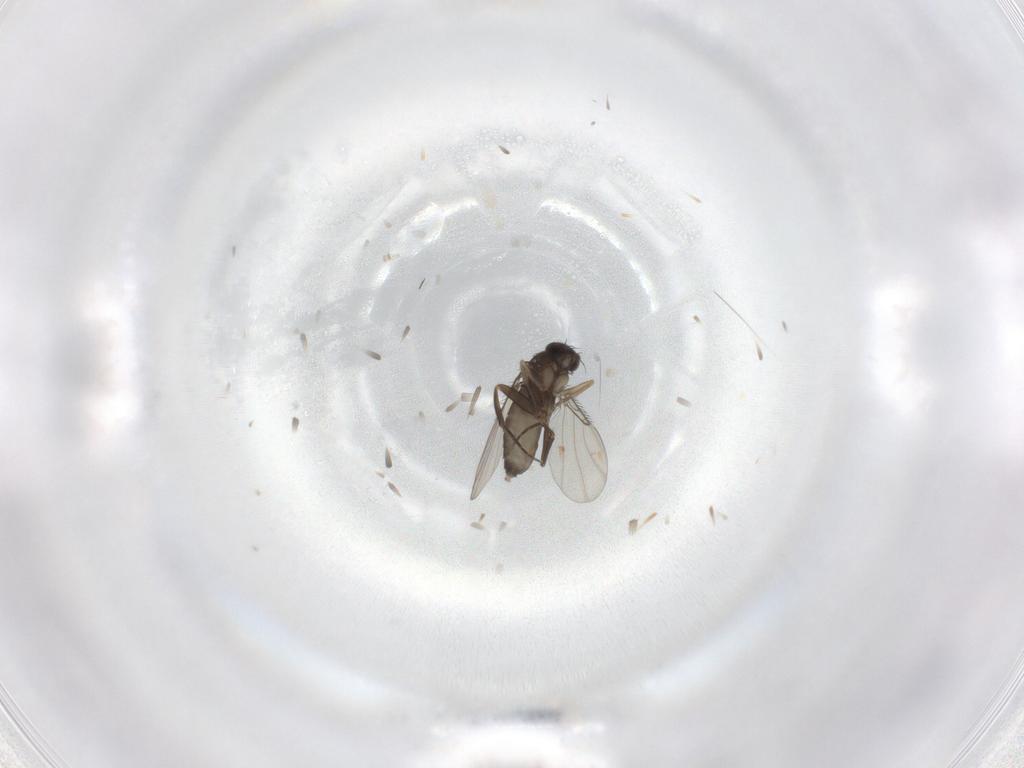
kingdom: Animalia
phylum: Arthropoda
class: Insecta
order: Diptera
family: Phoridae
